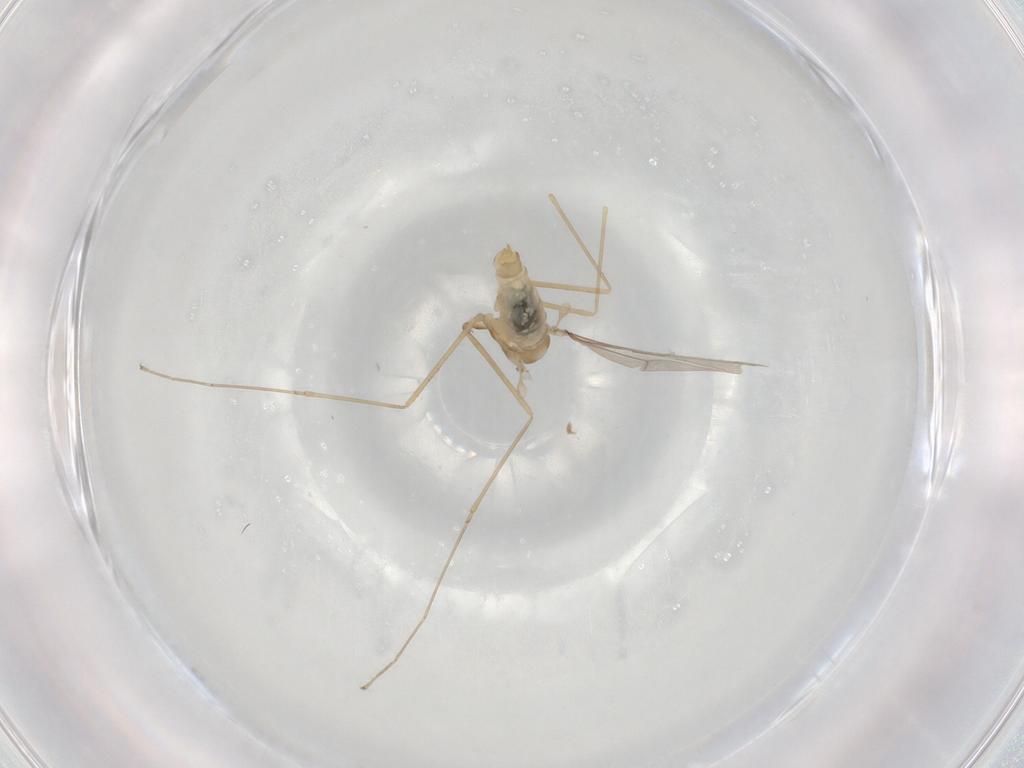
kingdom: Animalia
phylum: Arthropoda
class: Insecta
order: Diptera
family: Cecidomyiidae
